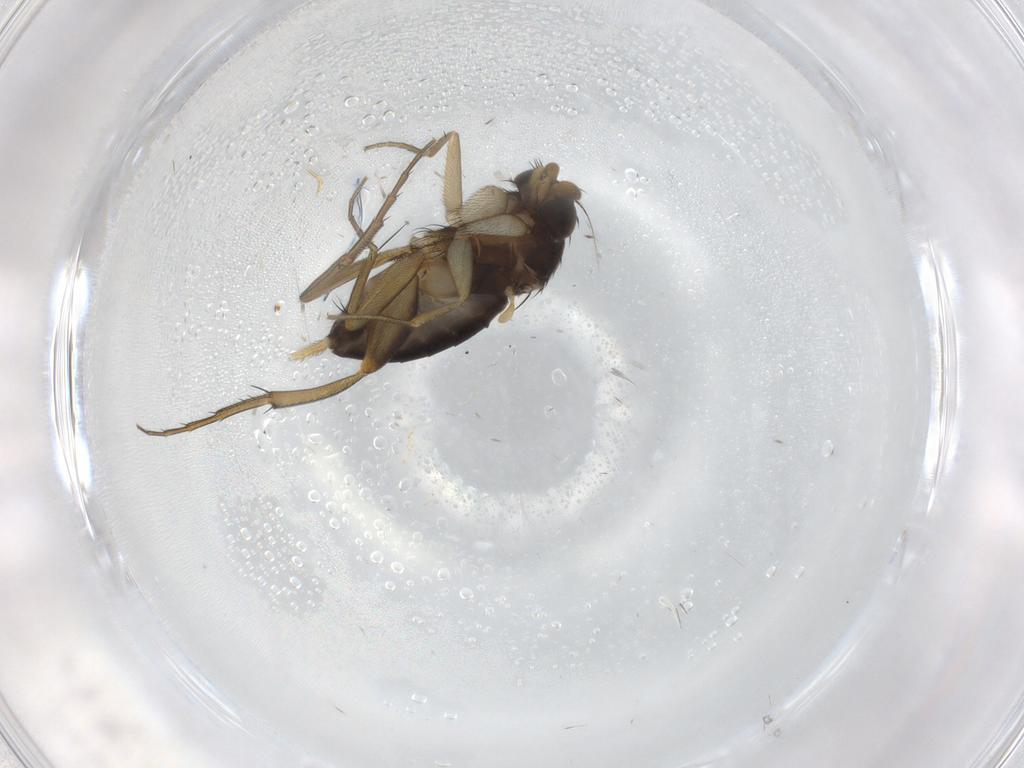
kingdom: Animalia
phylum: Arthropoda
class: Insecta
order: Diptera
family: Phoridae
